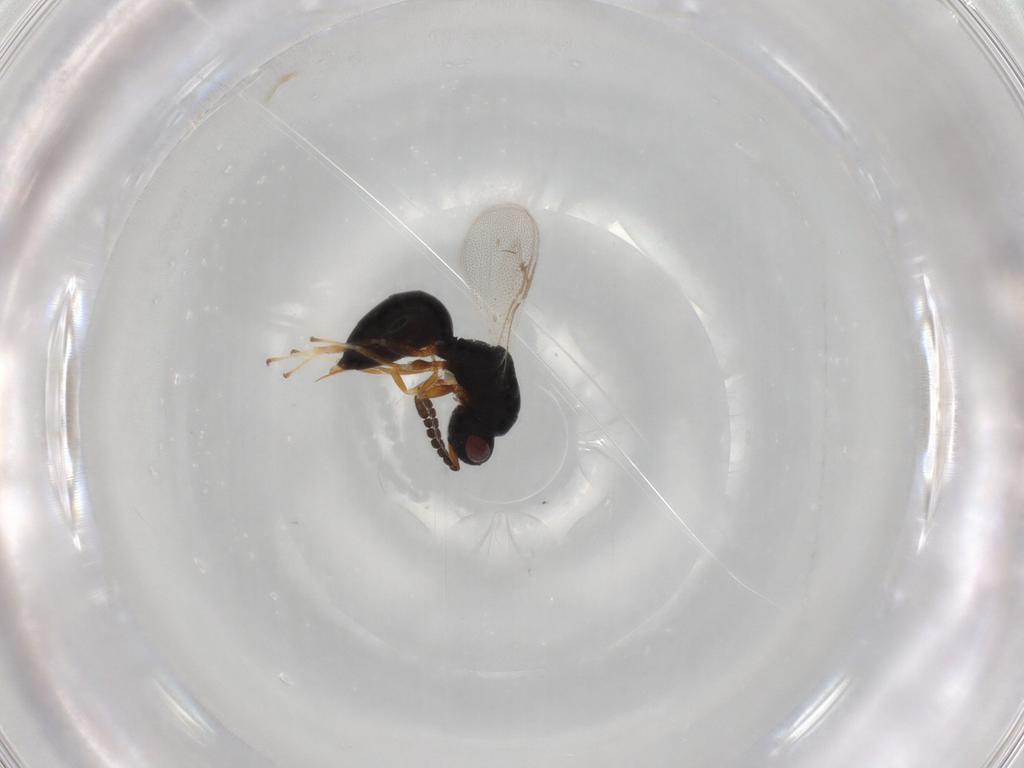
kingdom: Animalia
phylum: Arthropoda
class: Insecta
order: Hymenoptera
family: Eurytomidae
